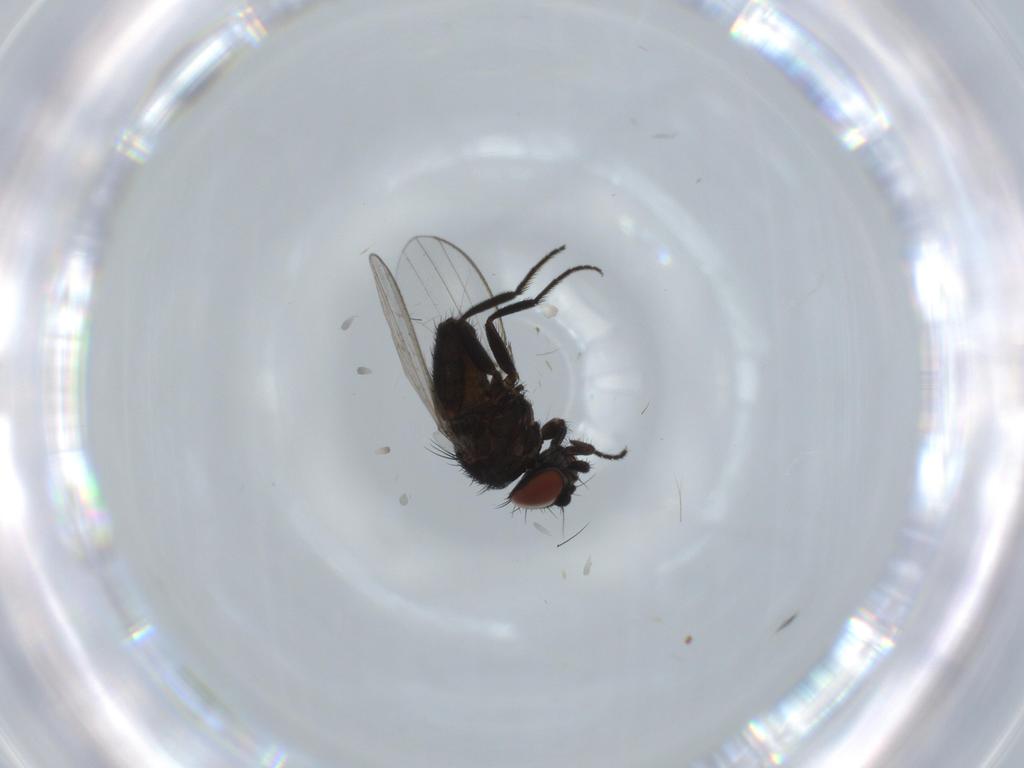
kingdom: Animalia
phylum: Arthropoda
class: Insecta
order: Diptera
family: Milichiidae
